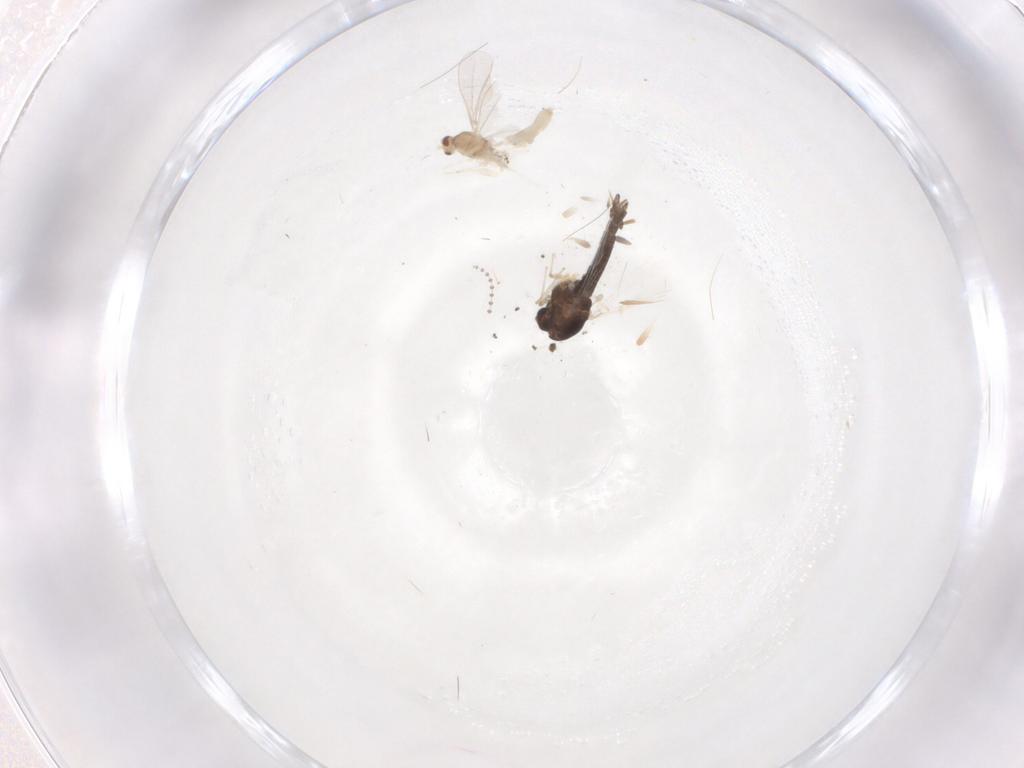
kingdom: Animalia
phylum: Arthropoda
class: Insecta
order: Diptera
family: Chironomidae
